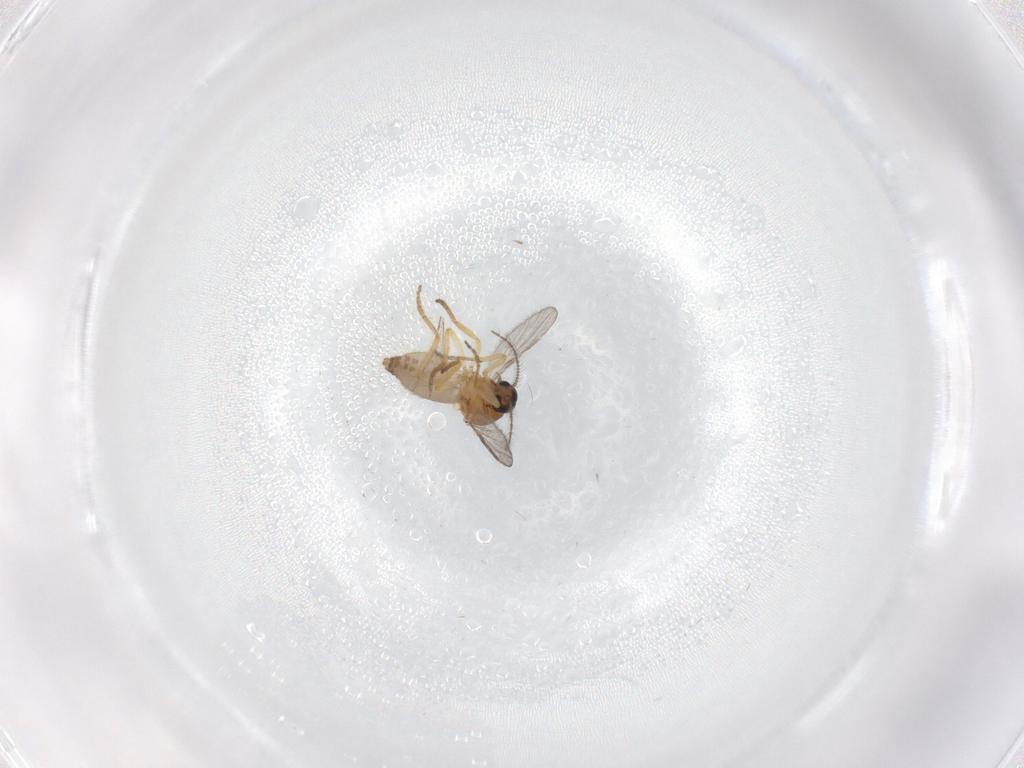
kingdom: Animalia
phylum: Arthropoda
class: Insecta
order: Diptera
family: Ceratopogonidae
